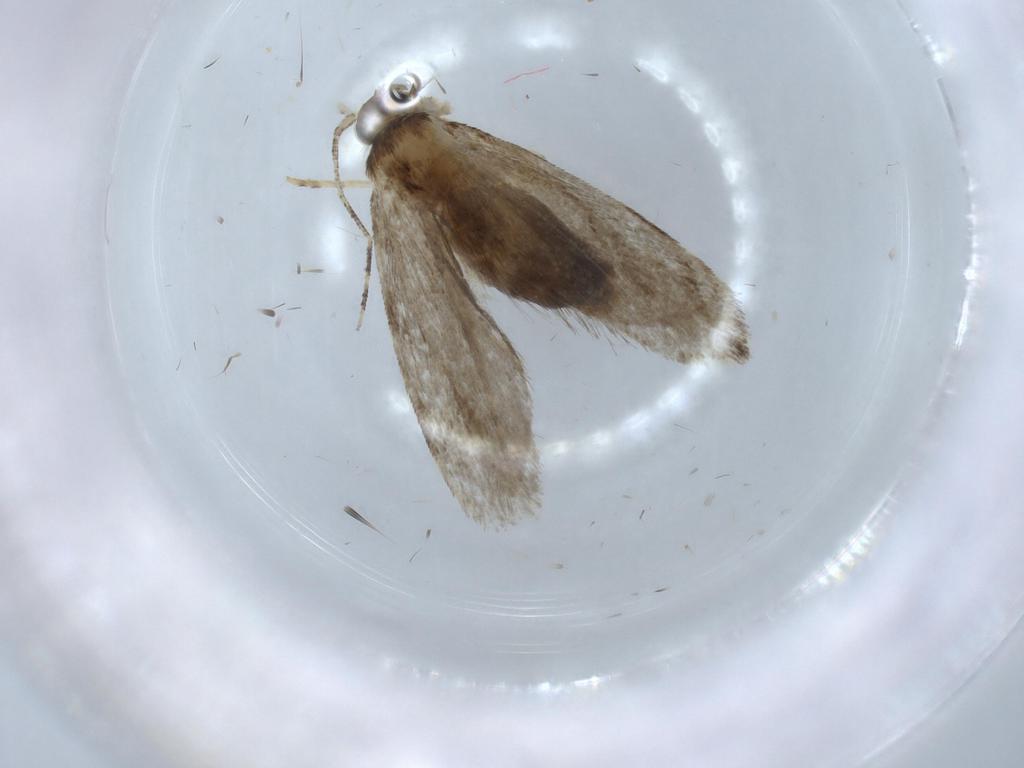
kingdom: Animalia
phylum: Arthropoda
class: Insecta
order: Lepidoptera
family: Tineidae
